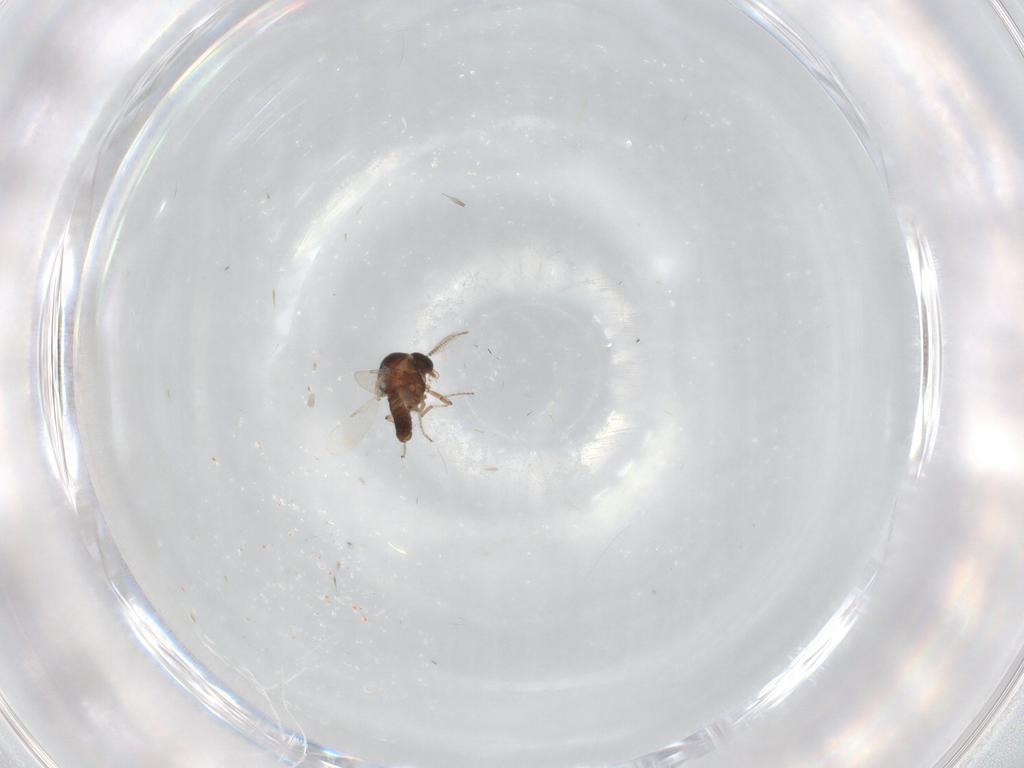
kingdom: Animalia
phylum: Arthropoda
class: Insecta
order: Diptera
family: Ceratopogonidae
